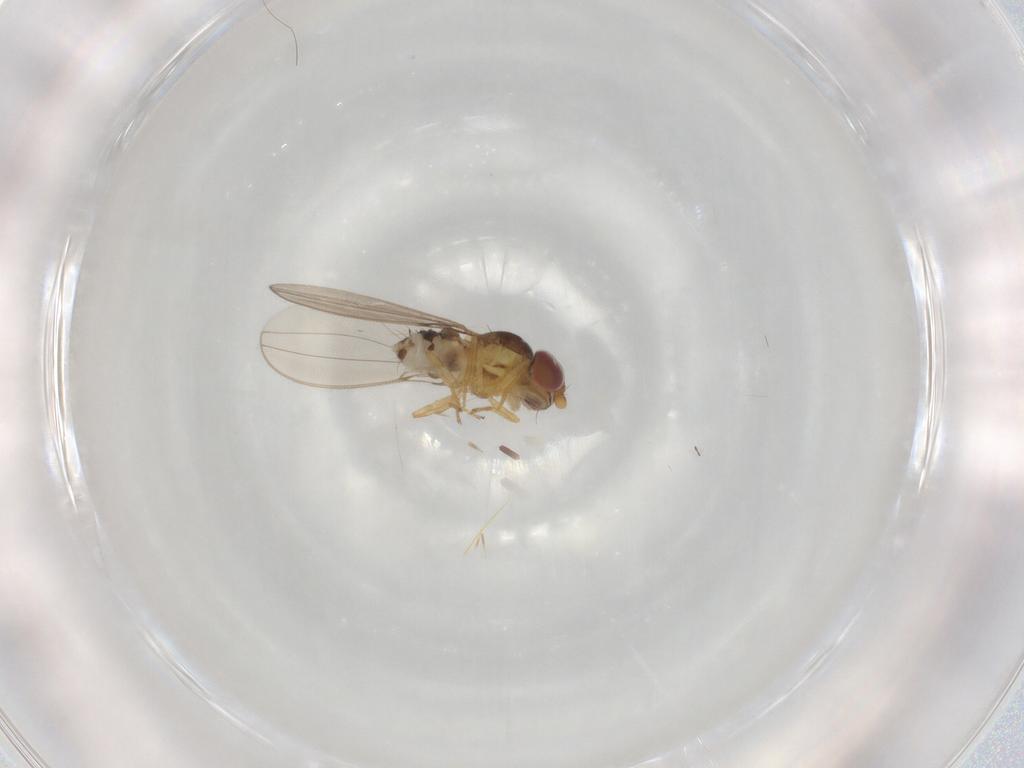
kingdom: Animalia
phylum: Arthropoda
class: Insecta
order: Diptera
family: Asteiidae
